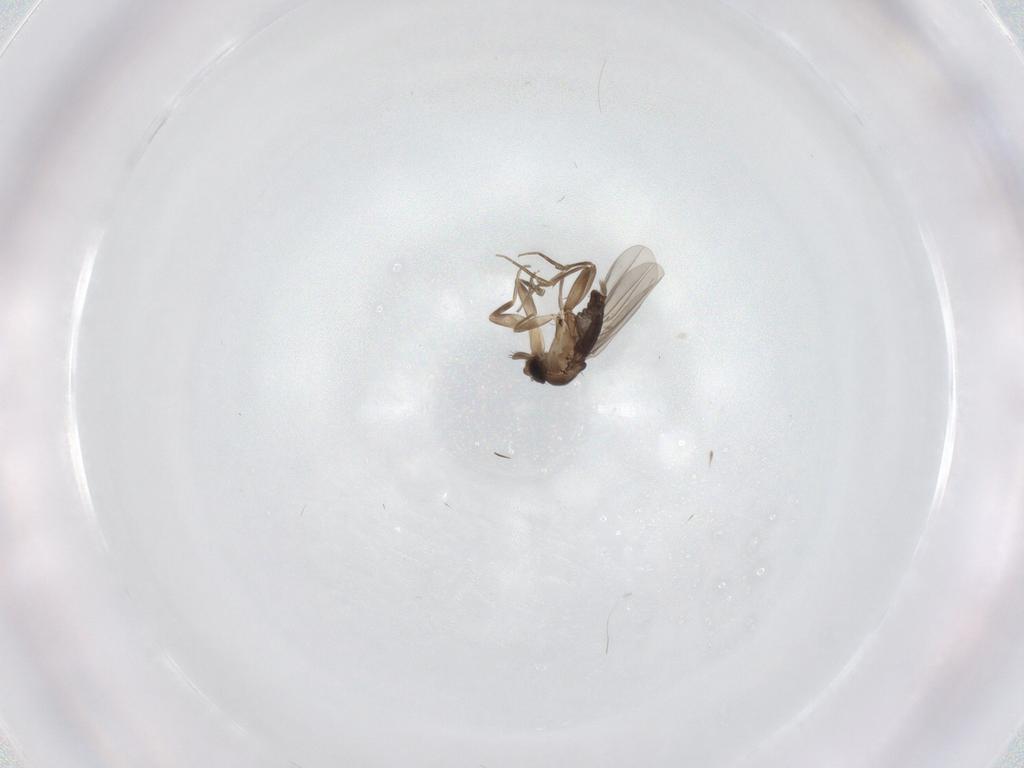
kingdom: Animalia
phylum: Arthropoda
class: Insecta
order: Diptera
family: Phoridae
